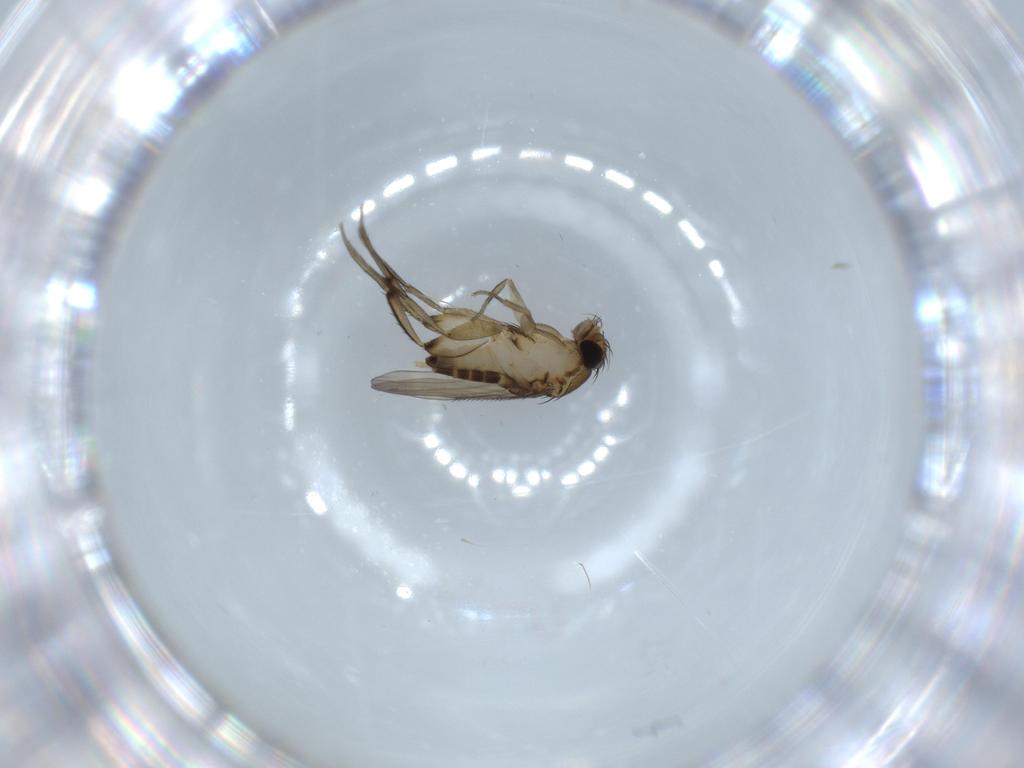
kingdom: Animalia
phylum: Arthropoda
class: Insecta
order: Diptera
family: Phoridae
